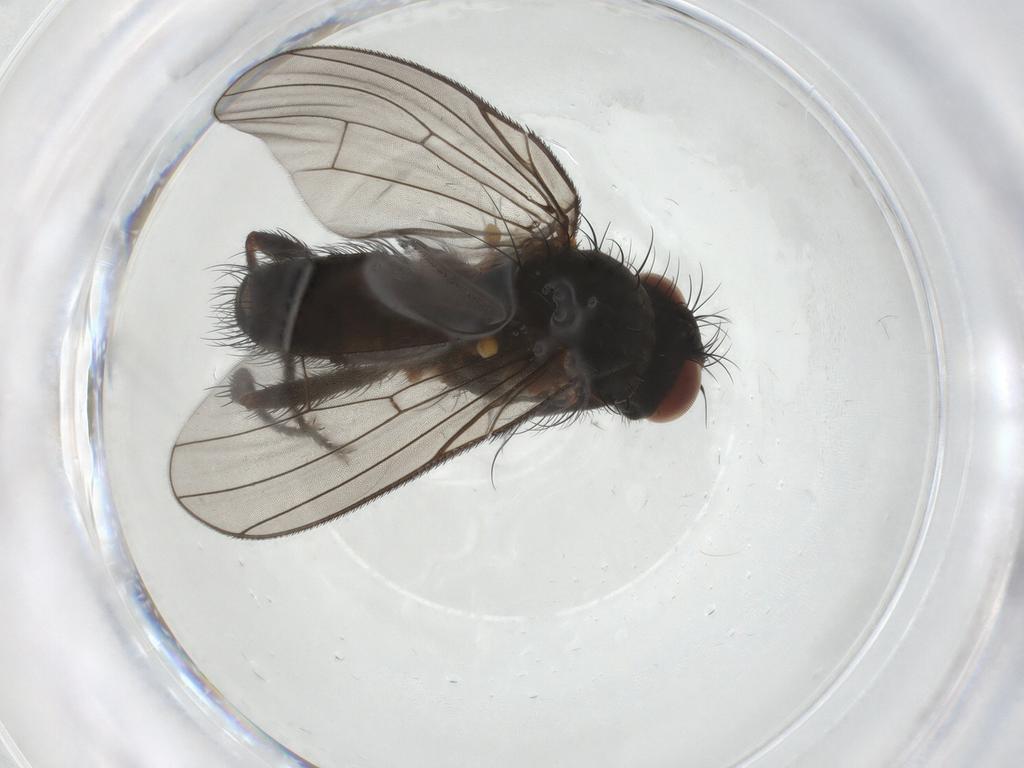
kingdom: Animalia
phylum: Arthropoda
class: Insecta
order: Diptera
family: Anthomyiidae
